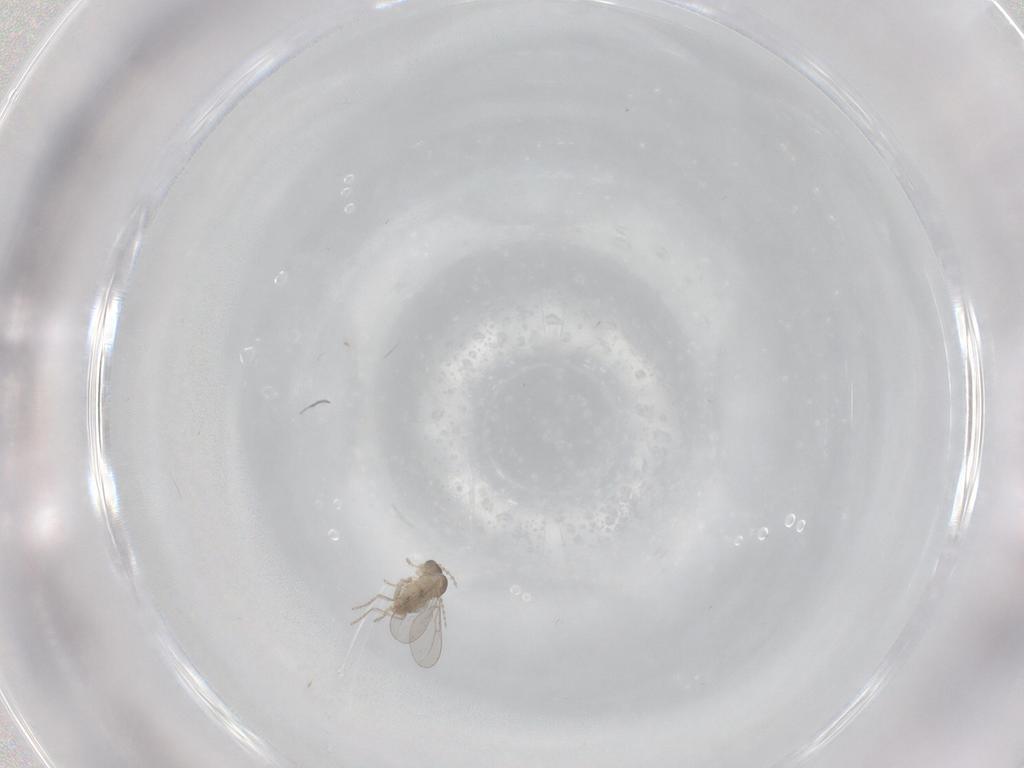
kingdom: Animalia
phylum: Arthropoda
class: Insecta
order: Diptera
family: Cecidomyiidae
